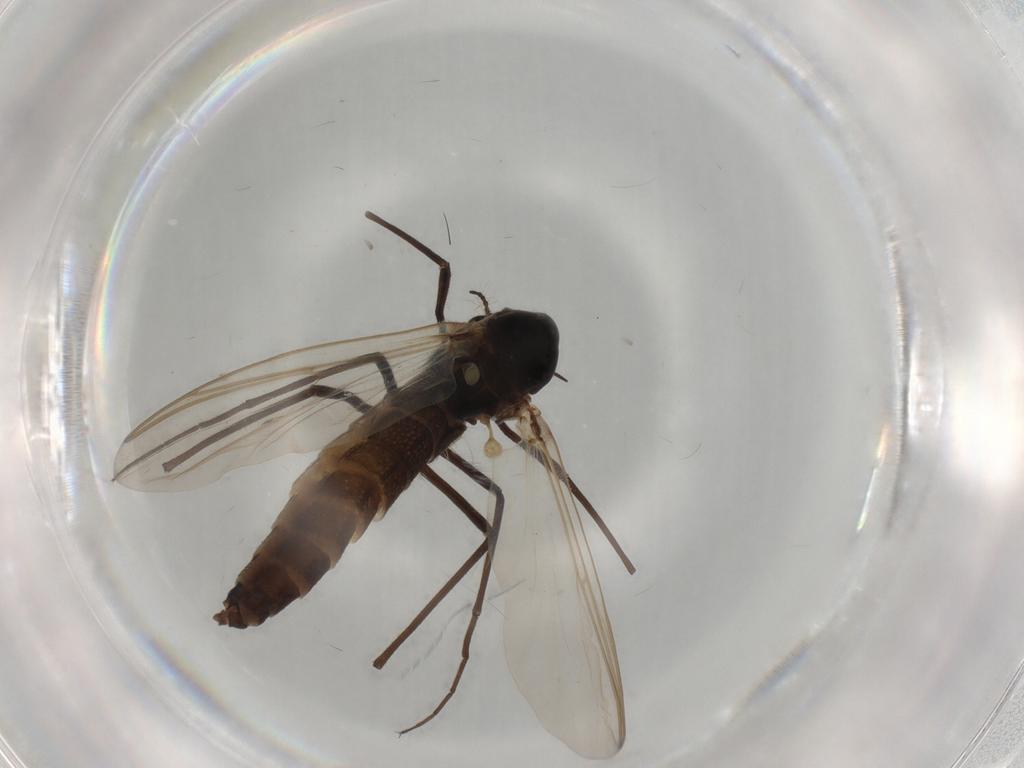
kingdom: Animalia
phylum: Arthropoda
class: Insecta
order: Diptera
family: Chironomidae
